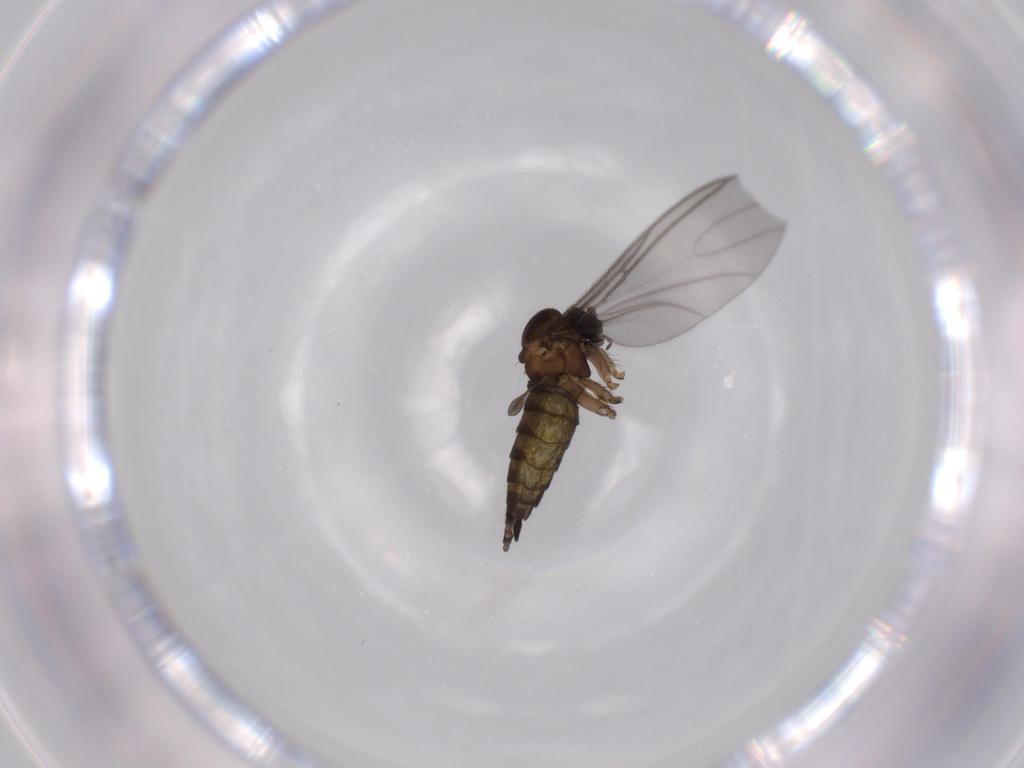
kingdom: Animalia
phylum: Arthropoda
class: Insecta
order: Diptera
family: Sciaridae
